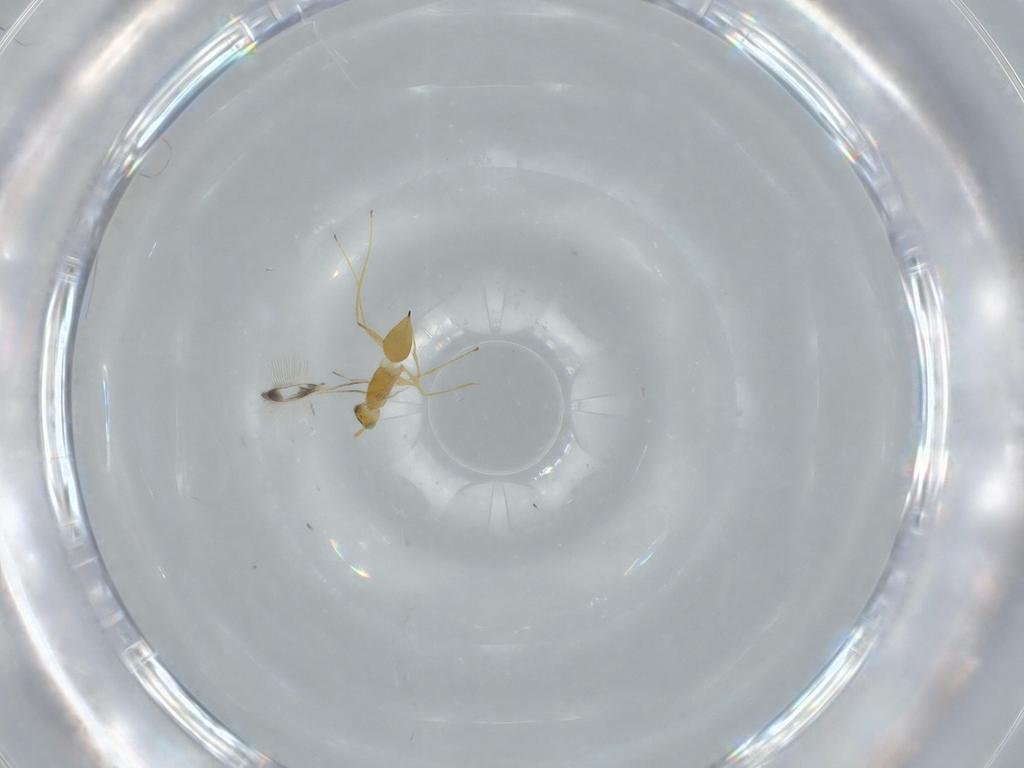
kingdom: Animalia
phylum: Arthropoda
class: Insecta
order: Hymenoptera
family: Mymaridae
